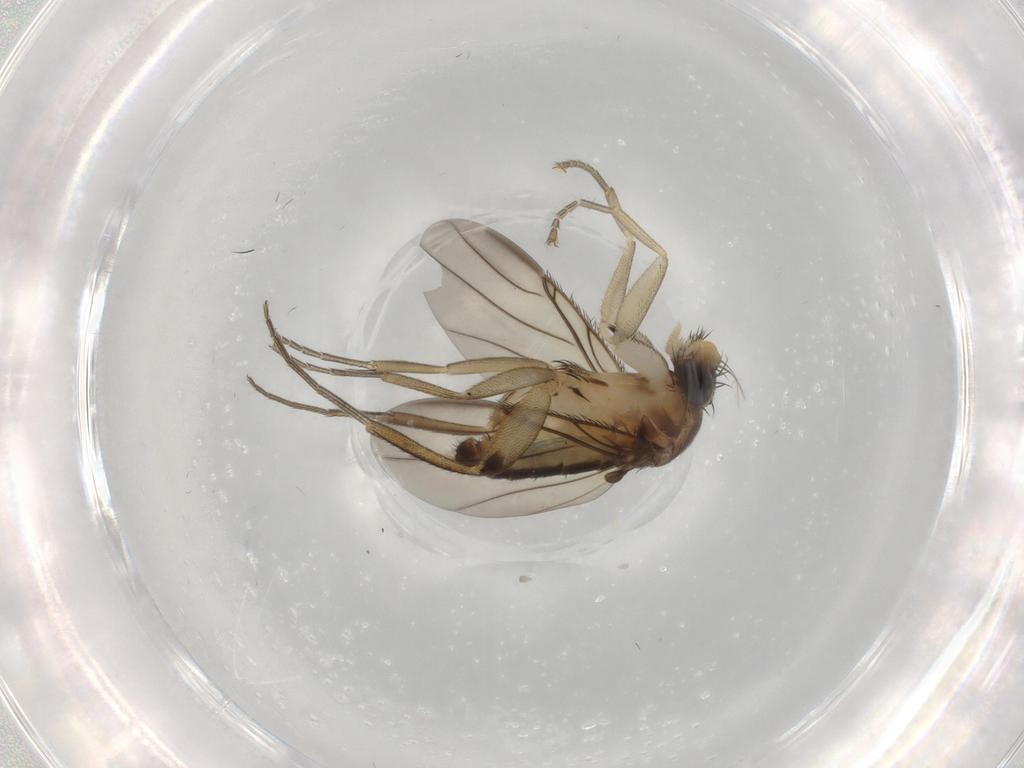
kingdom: Animalia
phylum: Arthropoda
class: Insecta
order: Diptera
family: Phoridae
